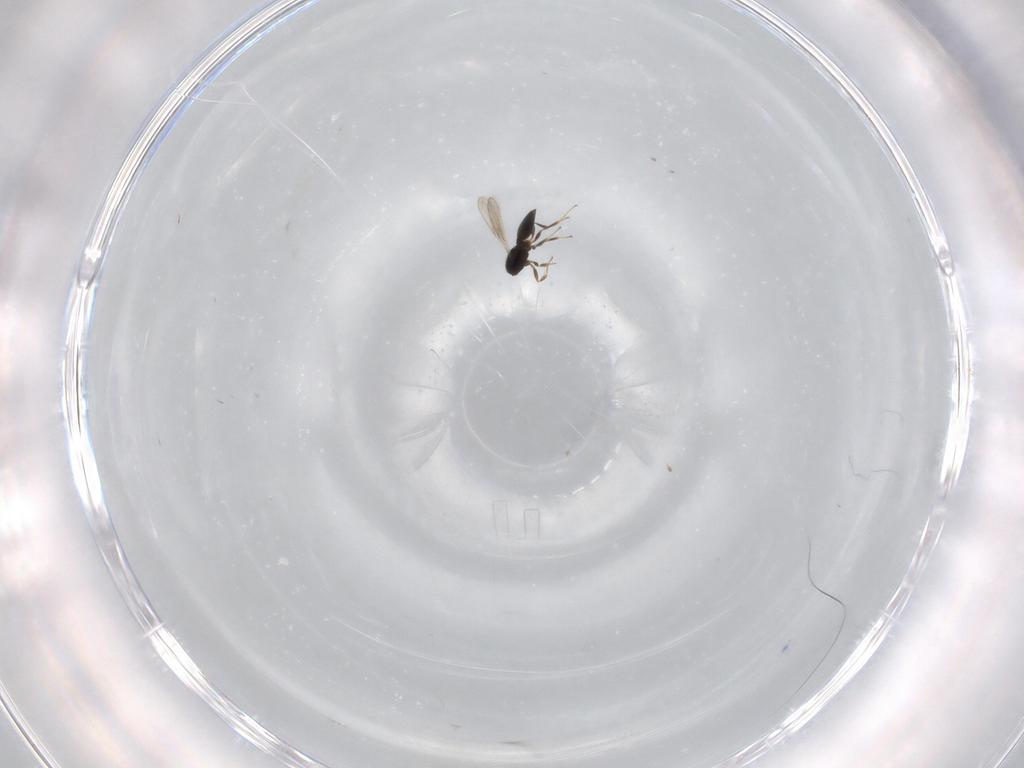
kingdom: Animalia
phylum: Arthropoda
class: Insecta
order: Hymenoptera
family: Scelionidae
